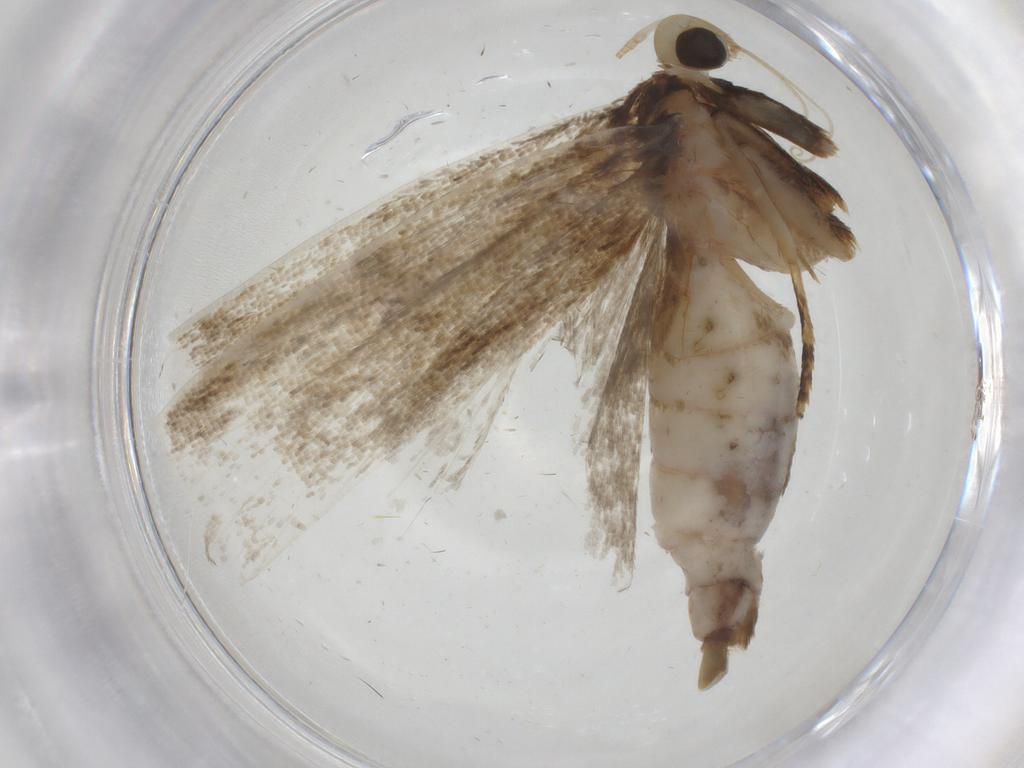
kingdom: Animalia
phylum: Arthropoda
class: Insecta
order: Lepidoptera
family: Autostichidae
